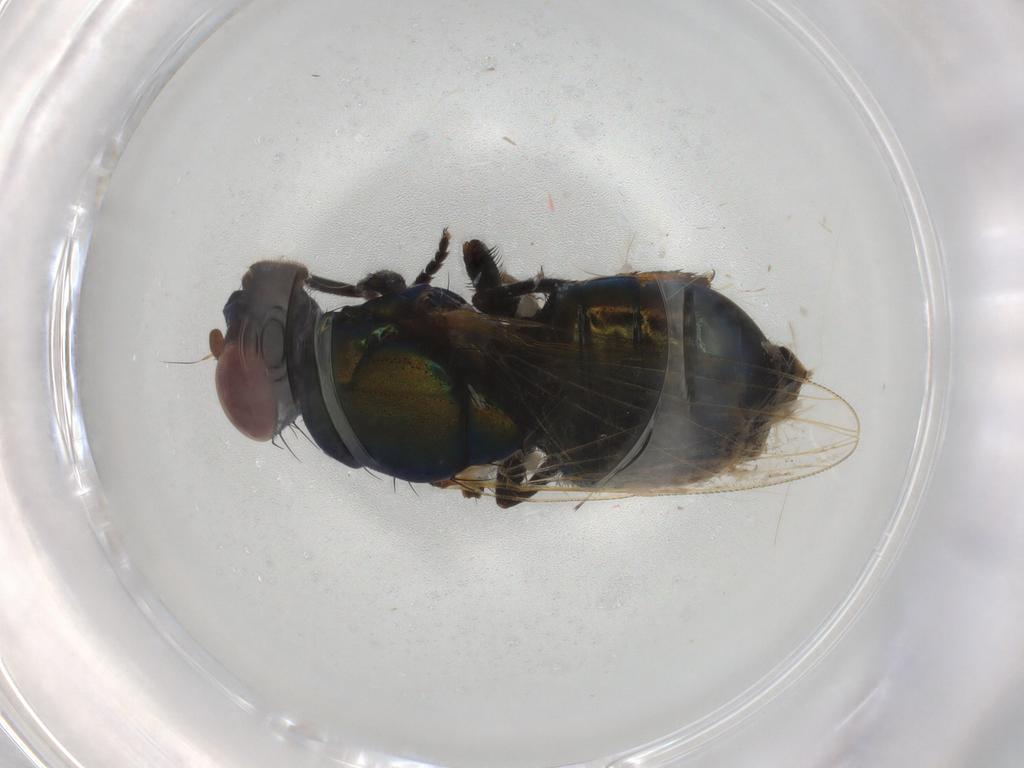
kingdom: Animalia
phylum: Arthropoda
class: Insecta
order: Diptera
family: Ulidiidae
